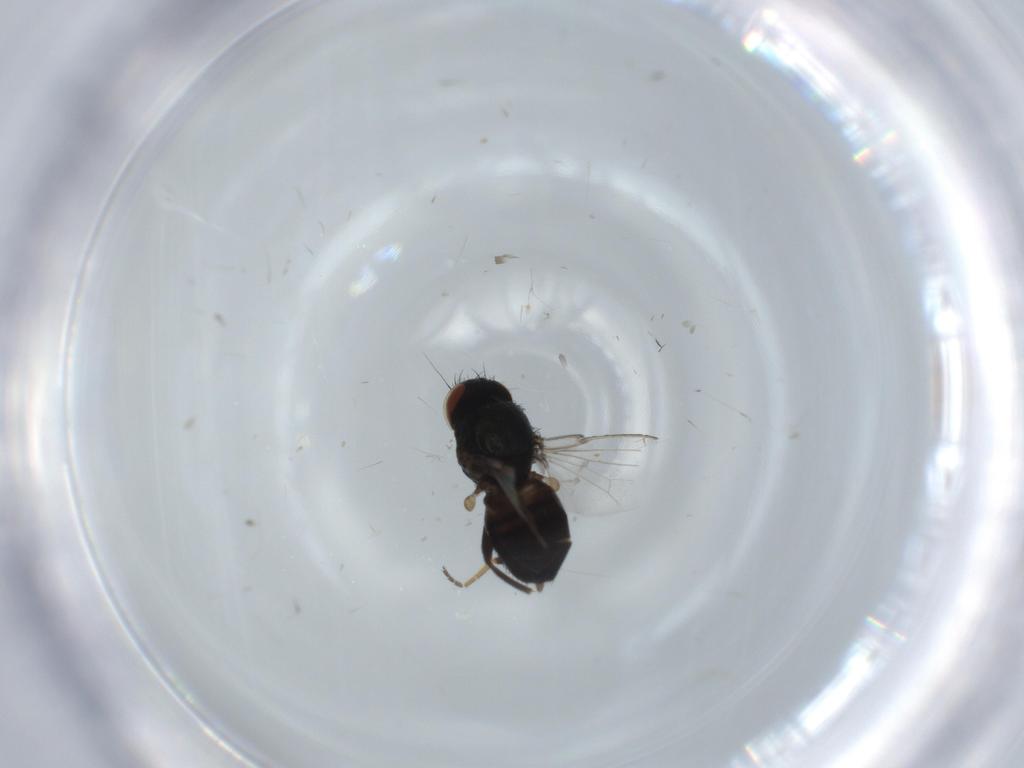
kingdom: Animalia
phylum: Arthropoda
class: Insecta
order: Diptera
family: Milichiidae
